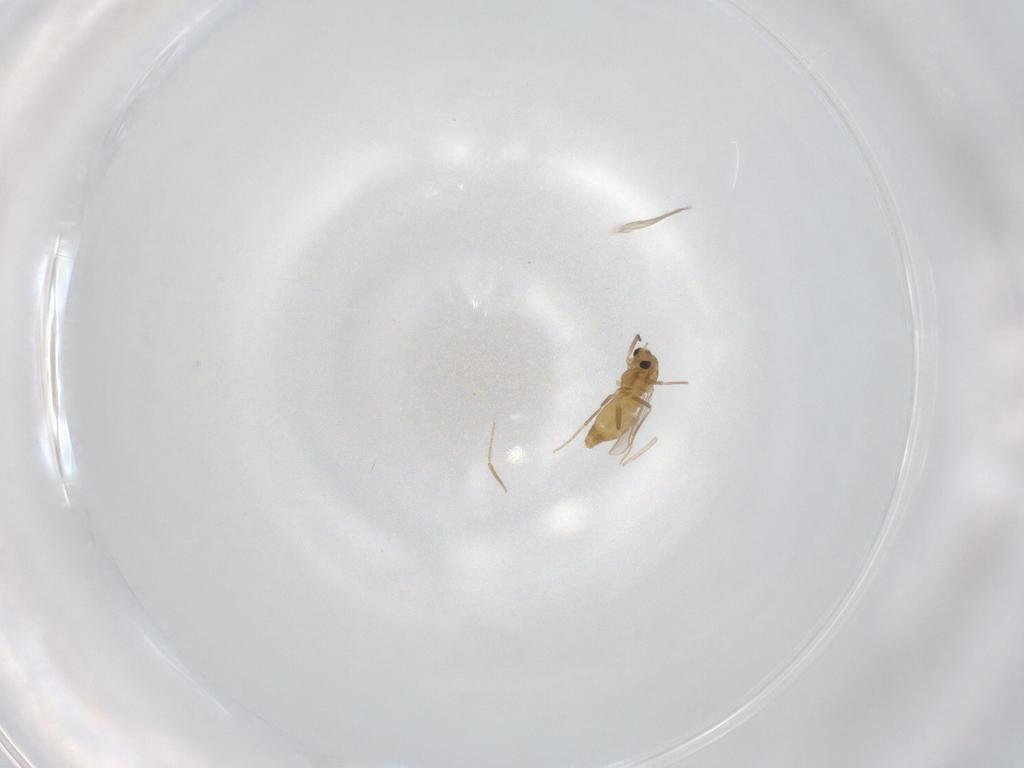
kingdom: Animalia
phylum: Arthropoda
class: Insecta
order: Diptera
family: Chironomidae
